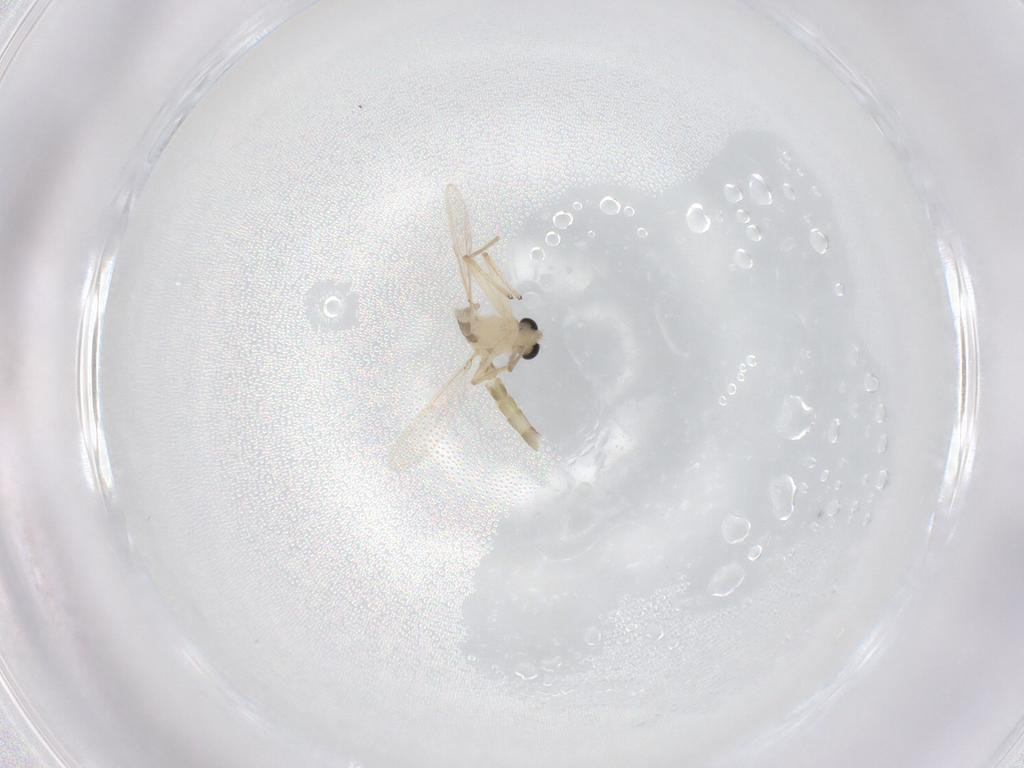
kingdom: Animalia
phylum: Arthropoda
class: Insecta
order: Diptera
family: Chironomidae
